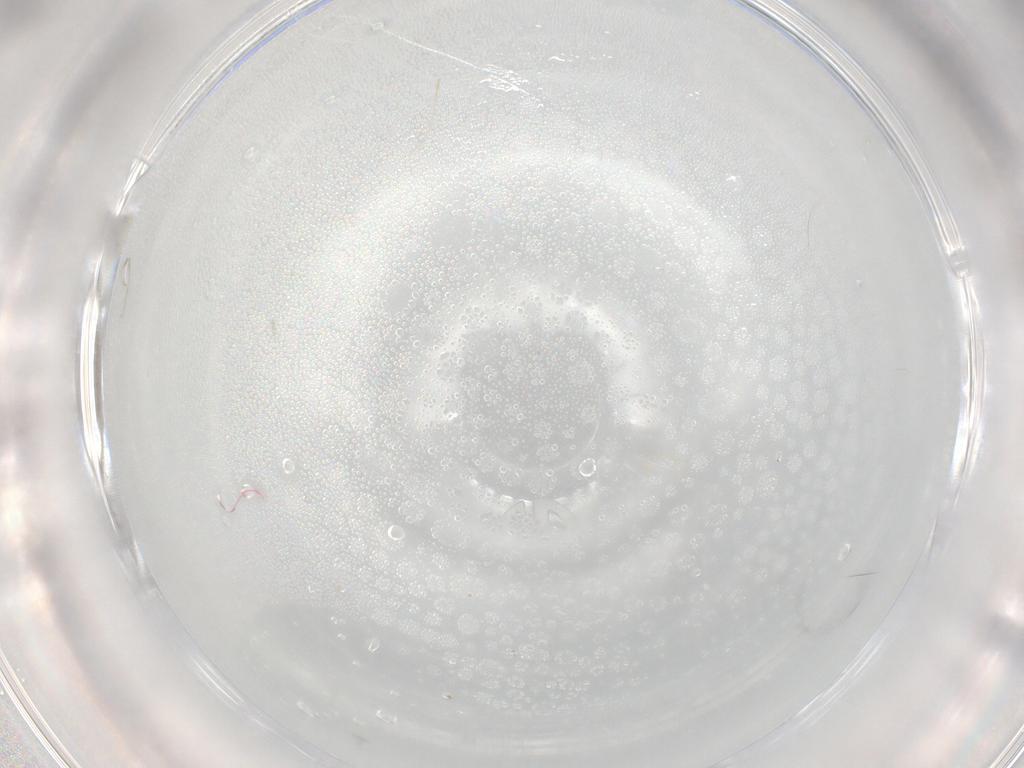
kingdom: Animalia
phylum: Arthropoda
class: Insecta
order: Diptera
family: Cecidomyiidae
